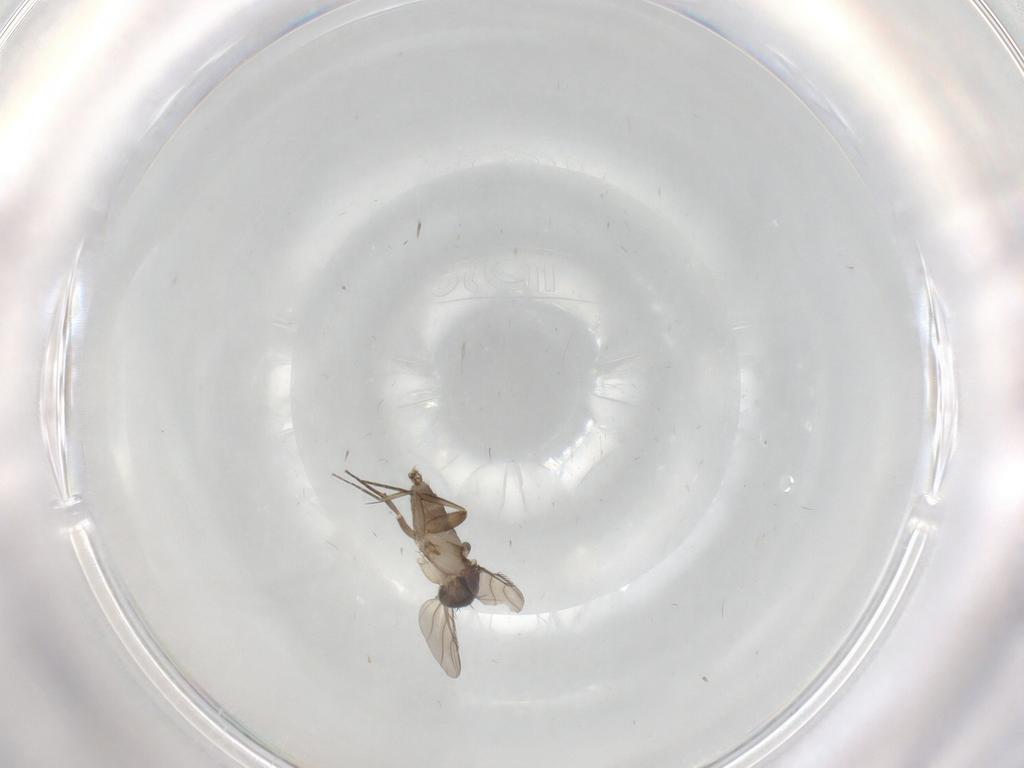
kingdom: Animalia
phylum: Arthropoda
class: Insecta
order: Diptera
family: Phoridae
